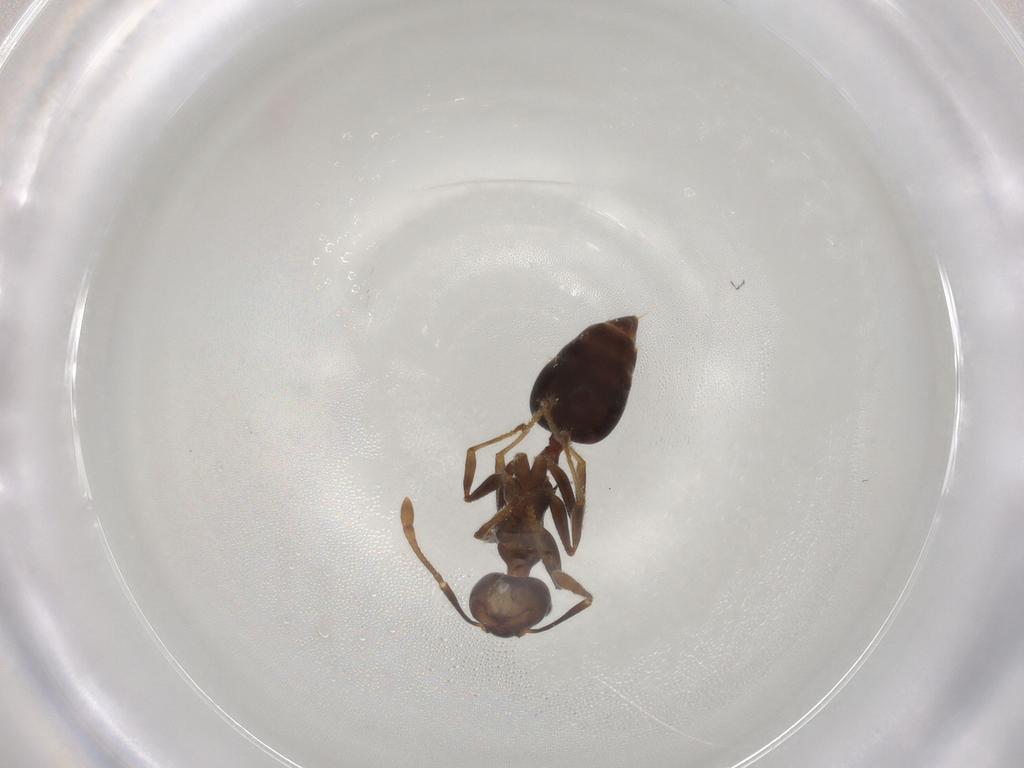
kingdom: Animalia
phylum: Arthropoda
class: Insecta
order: Hymenoptera
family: Formicidae
